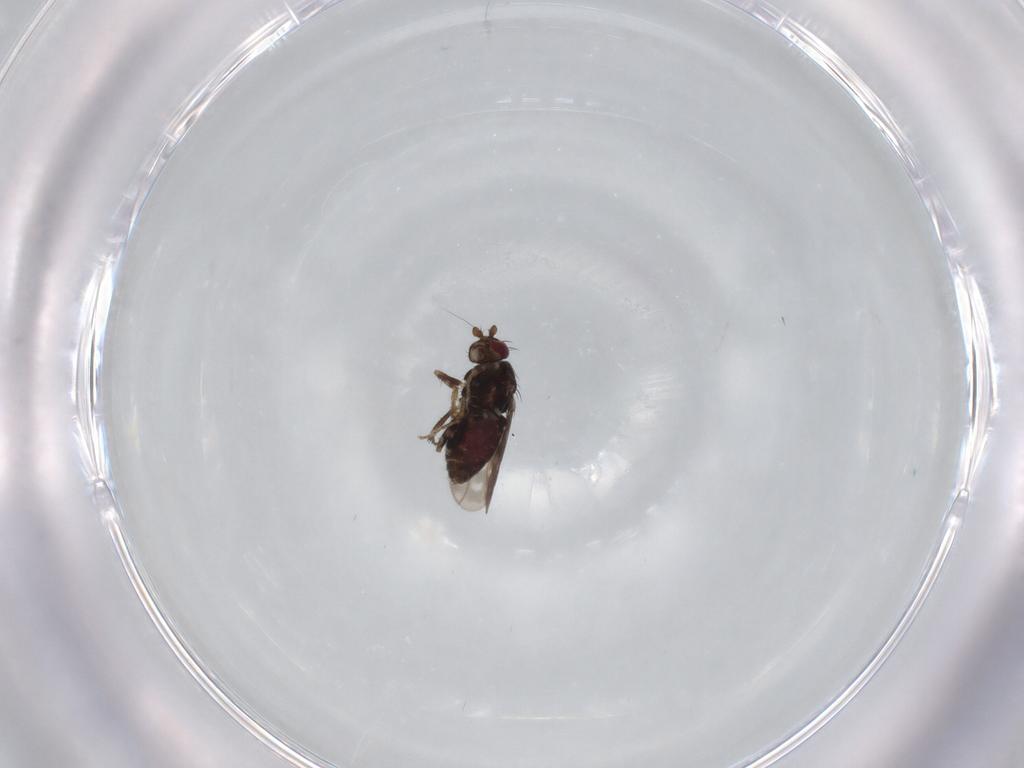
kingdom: Animalia
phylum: Arthropoda
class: Insecta
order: Diptera
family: Sphaeroceridae
